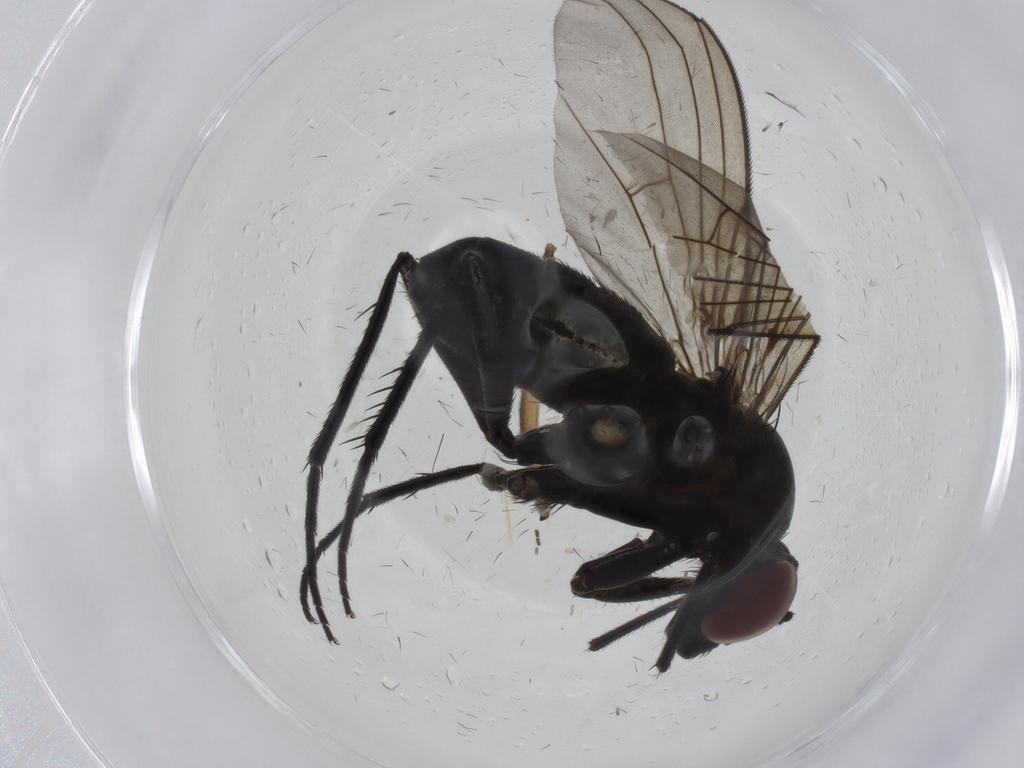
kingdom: Animalia
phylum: Arthropoda
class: Insecta
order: Diptera
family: Dolichopodidae
